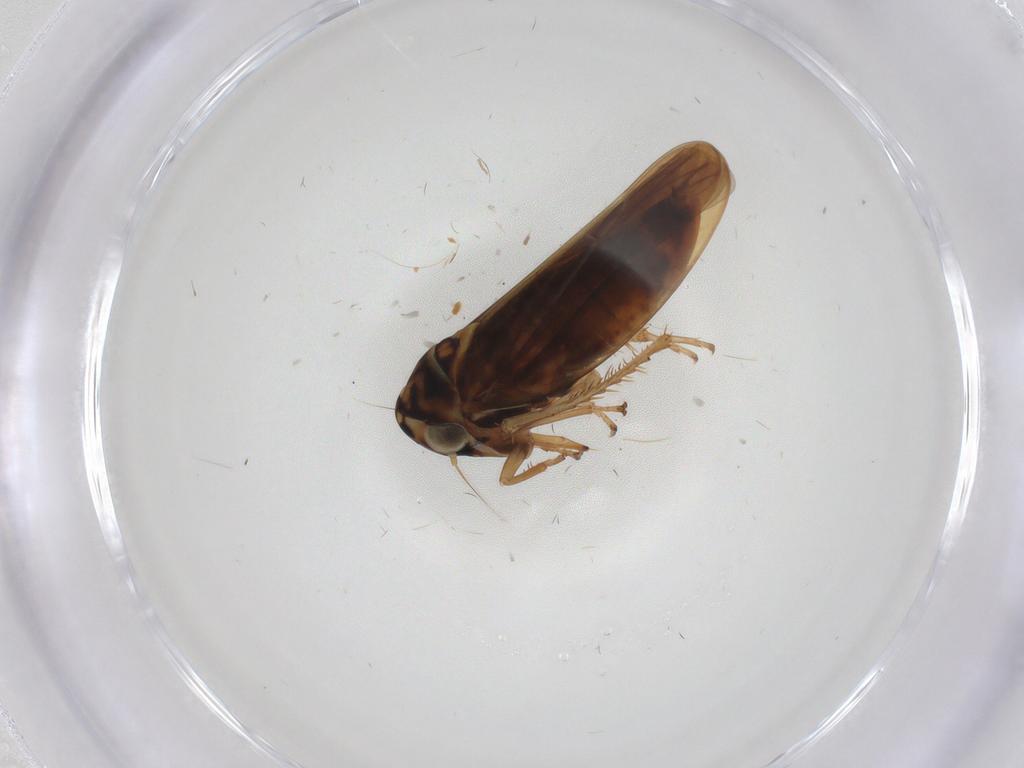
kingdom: Animalia
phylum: Arthropoda
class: Insecta
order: Hemiptera
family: Cicadellidae
